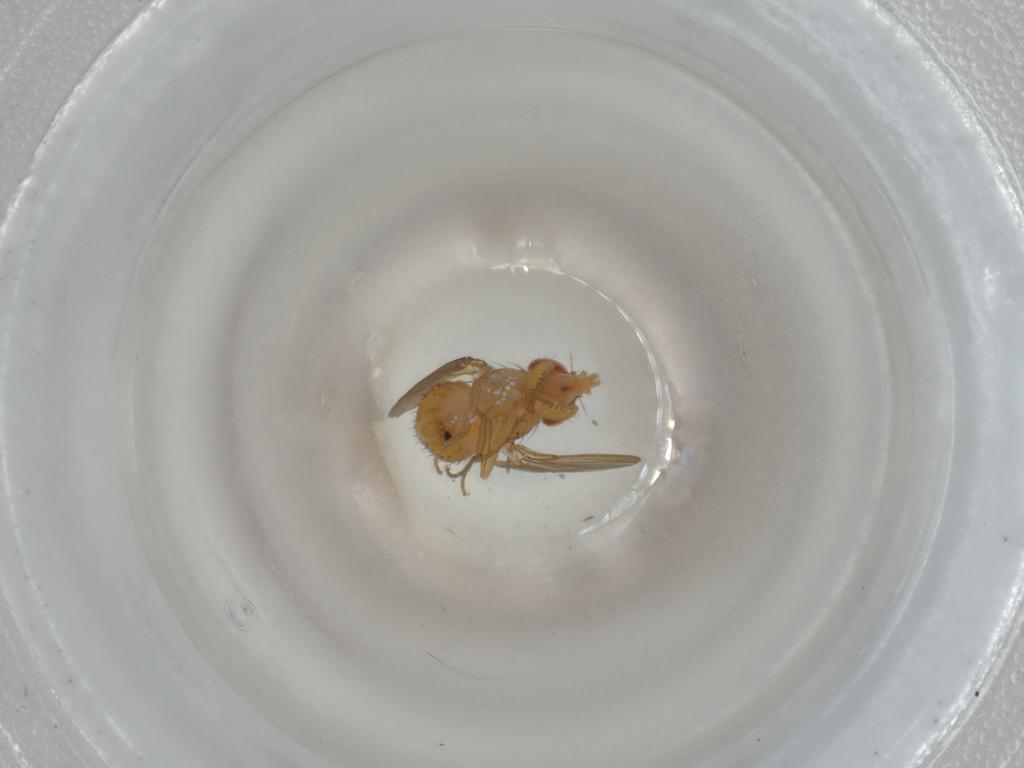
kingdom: Animalia
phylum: Arthropoda
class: Insecta
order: Diptera
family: Drosophilidae
